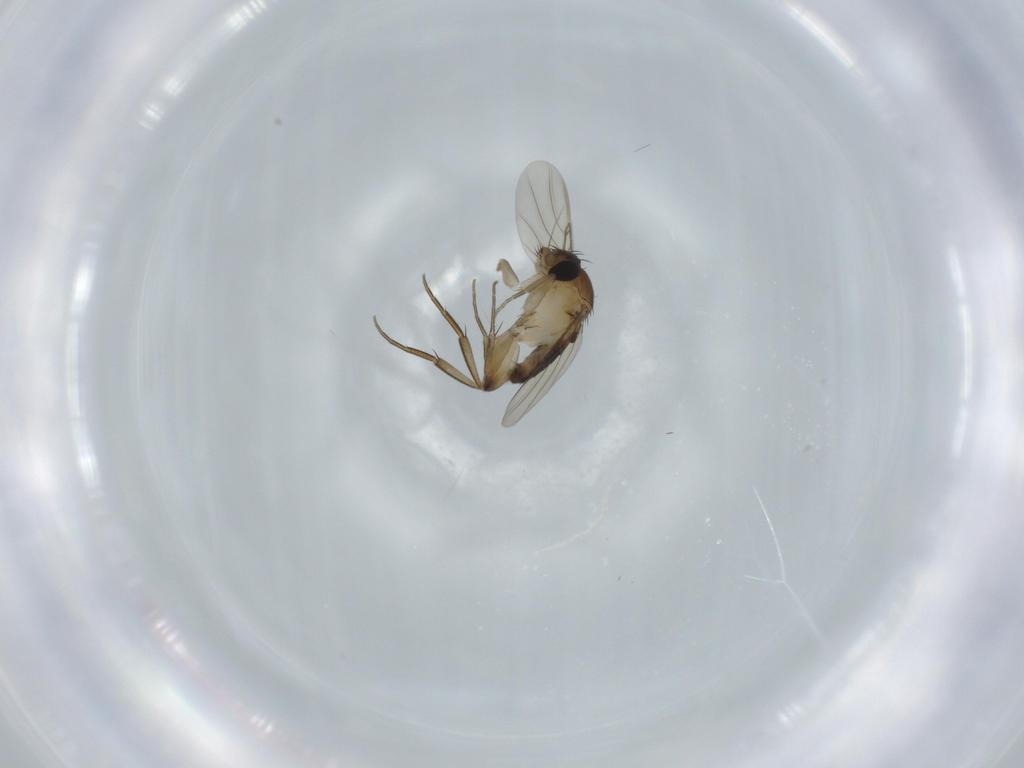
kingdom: Animalia
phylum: Arthropoda
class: Insecta
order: Diptera
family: Phoridae
